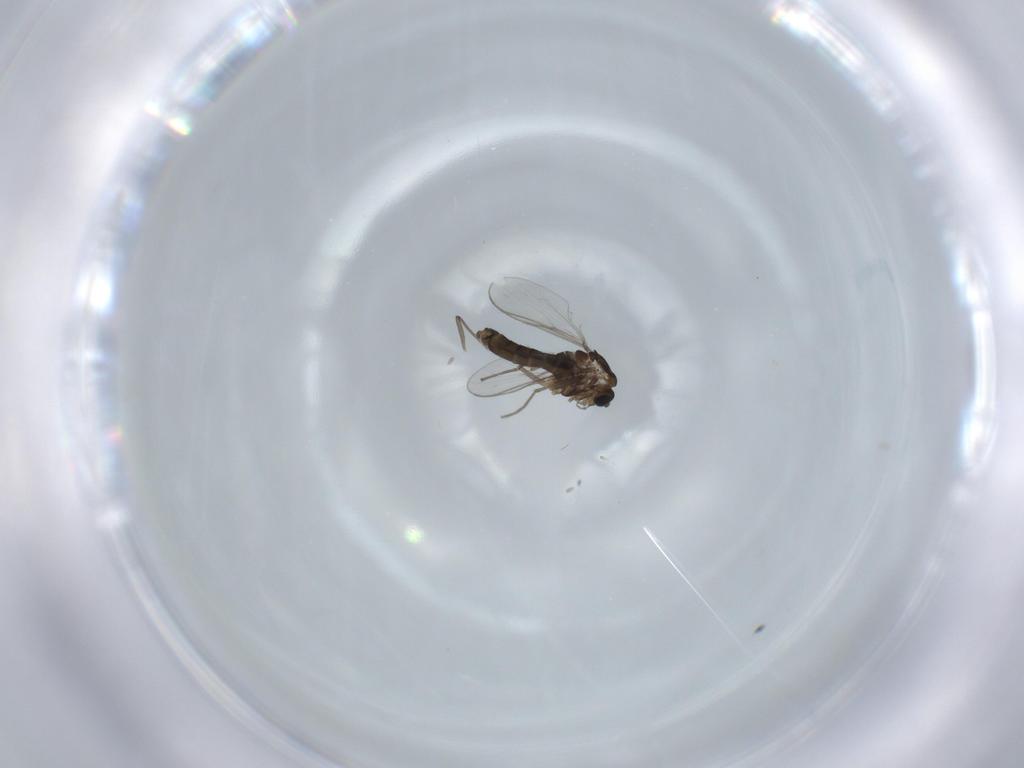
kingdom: Animalia
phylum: Arthropoda
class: Insecta
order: Diptera
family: Chironomidae
